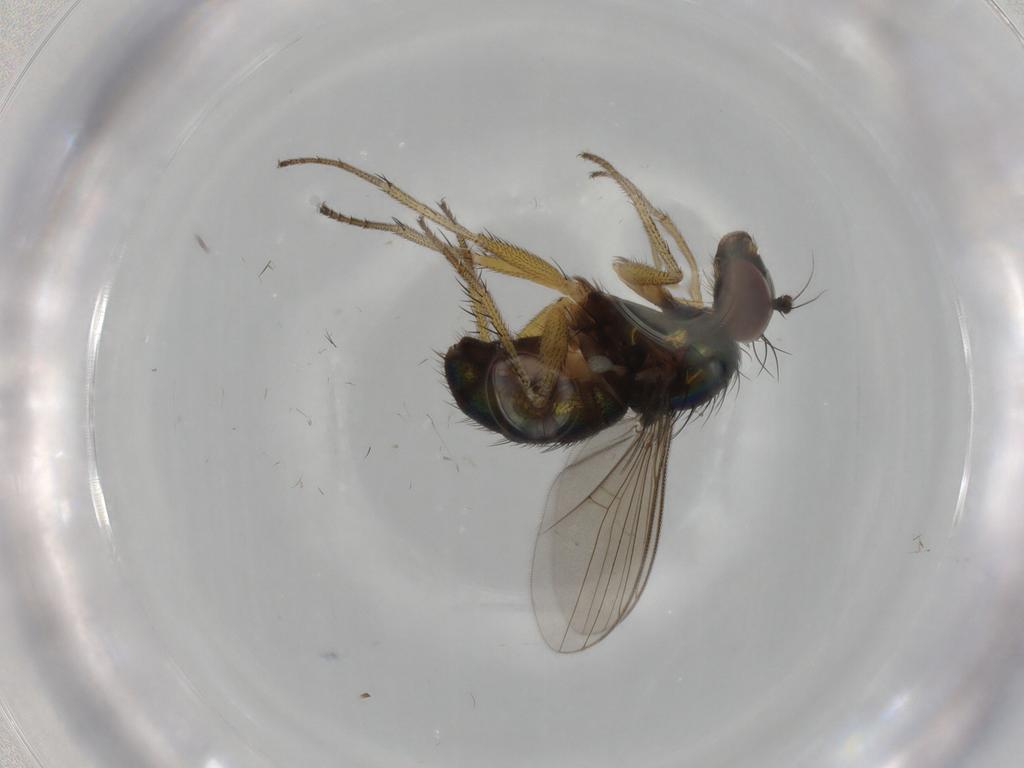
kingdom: Animalia
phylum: Arthropoda
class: Insecta
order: Diptera
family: Dolichopodidae
